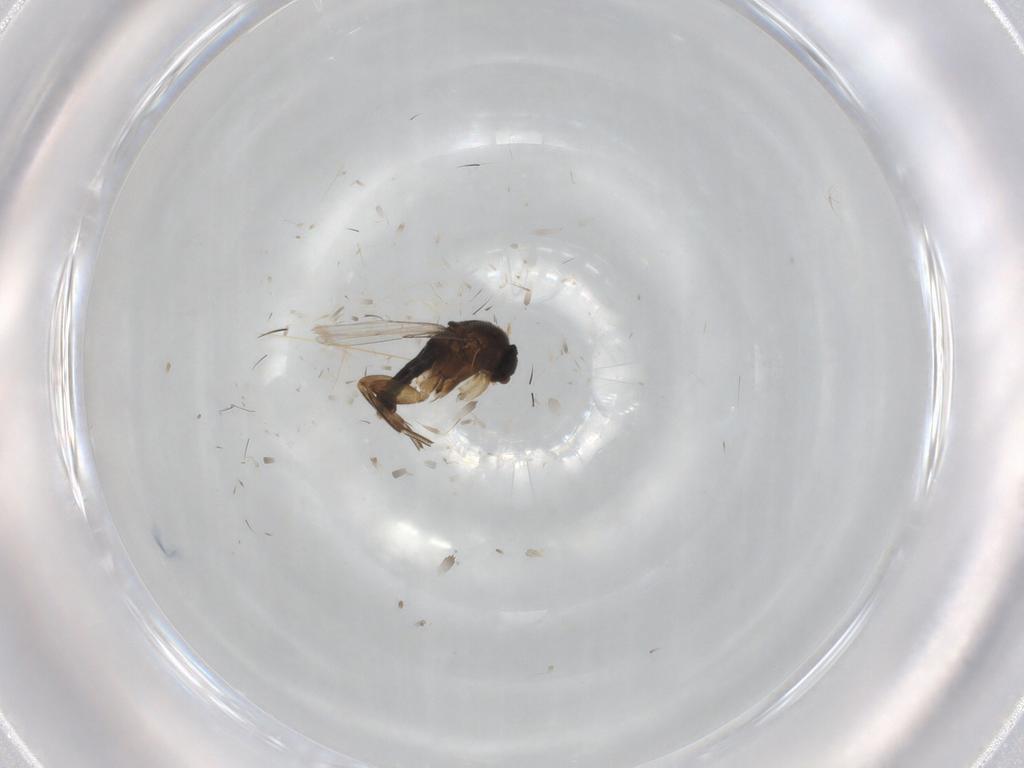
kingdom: Animalia
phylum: Arthropoda
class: Insecta
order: Diptera
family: Phoridae
